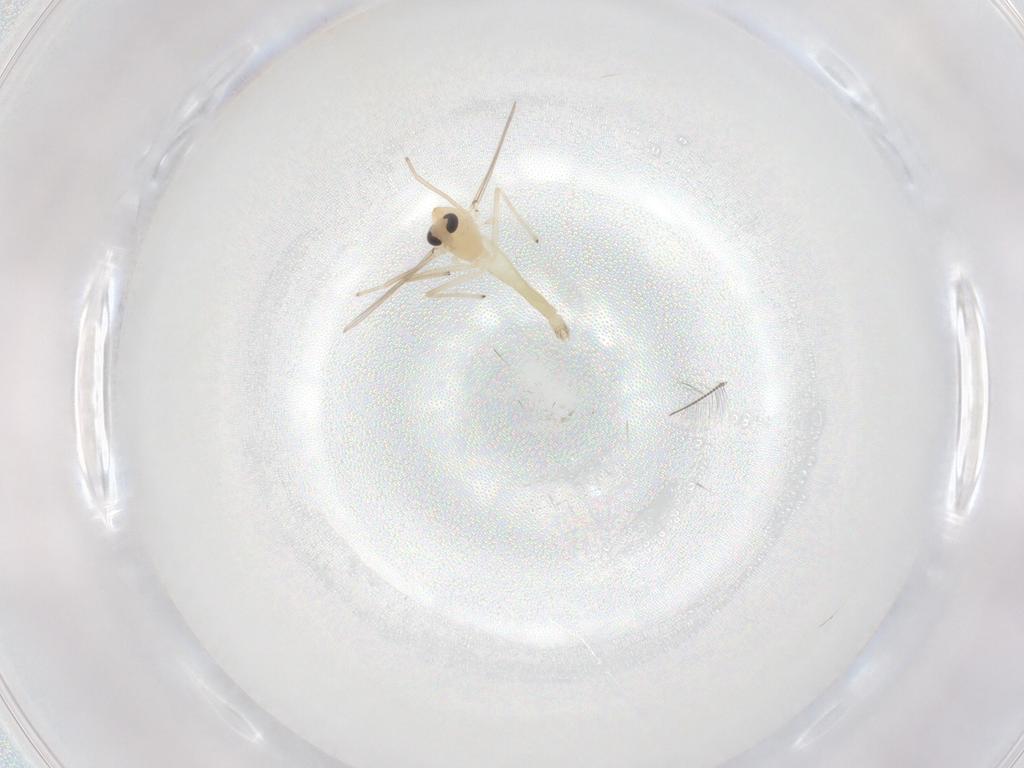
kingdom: Animalia
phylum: Arthropoda
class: Insecta
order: Diptera
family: Chironomidae
